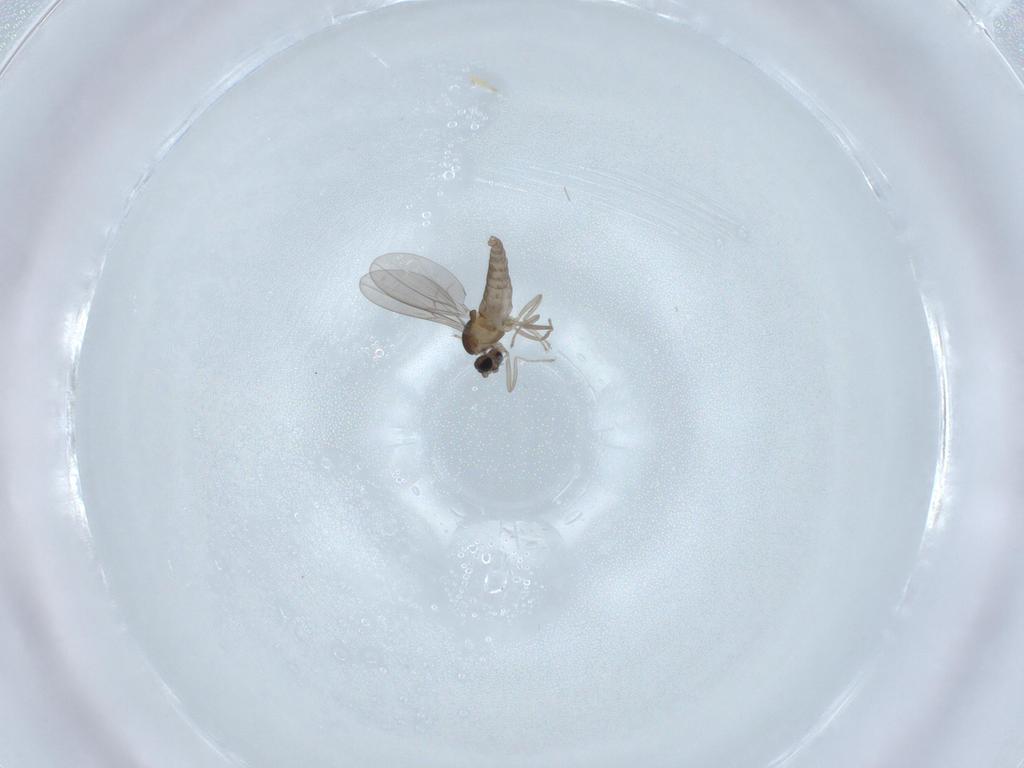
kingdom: Animalia
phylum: Arthropoda
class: Insecta
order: Diptera
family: Cecidomyiidae
